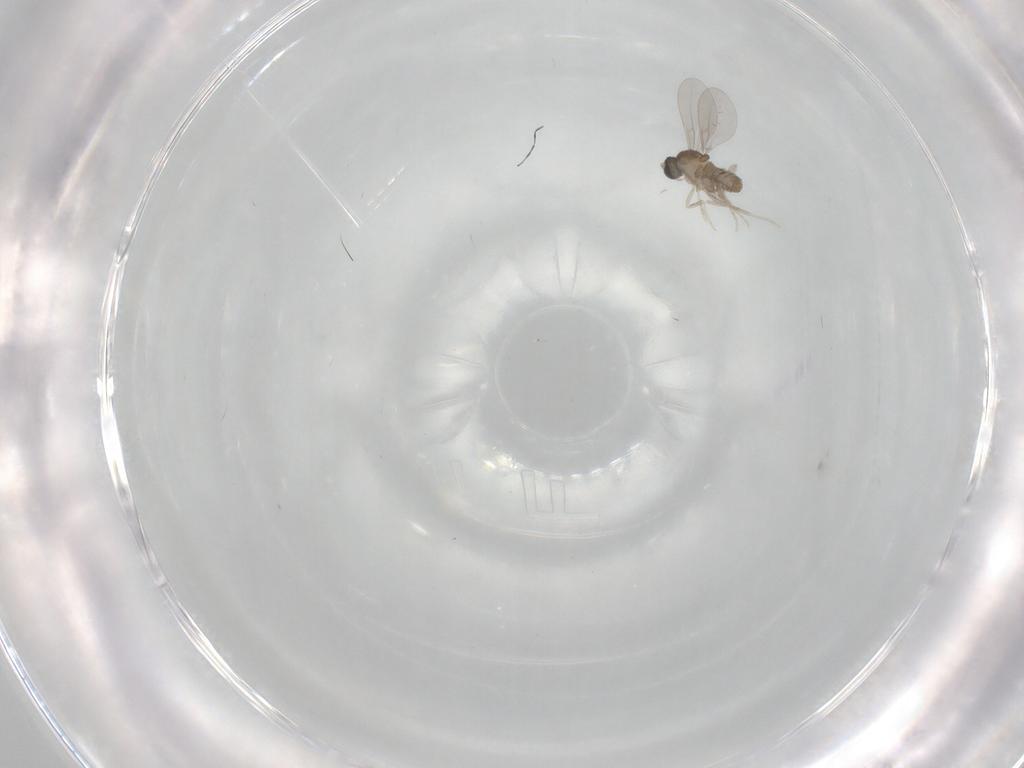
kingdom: Animalia
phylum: Arthropoda
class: Insecta
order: Diptera
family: Cecidomyiidae
